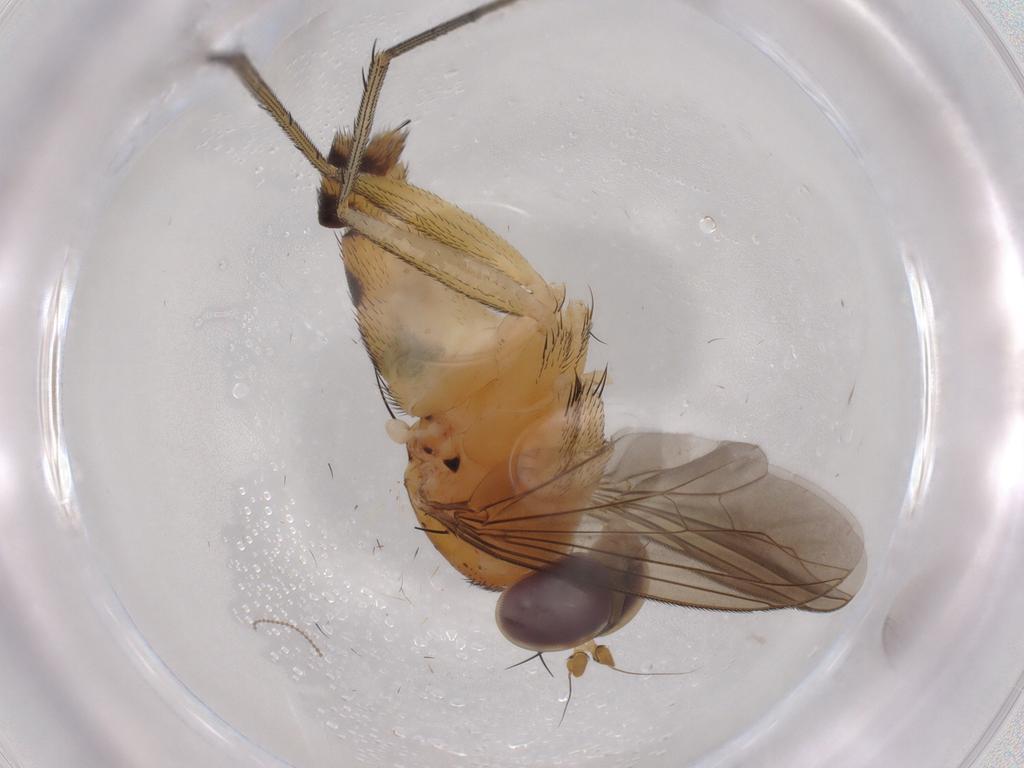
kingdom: Animalia
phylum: Arthropoda
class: Insecta
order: Diptera
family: Dolichopodidae
